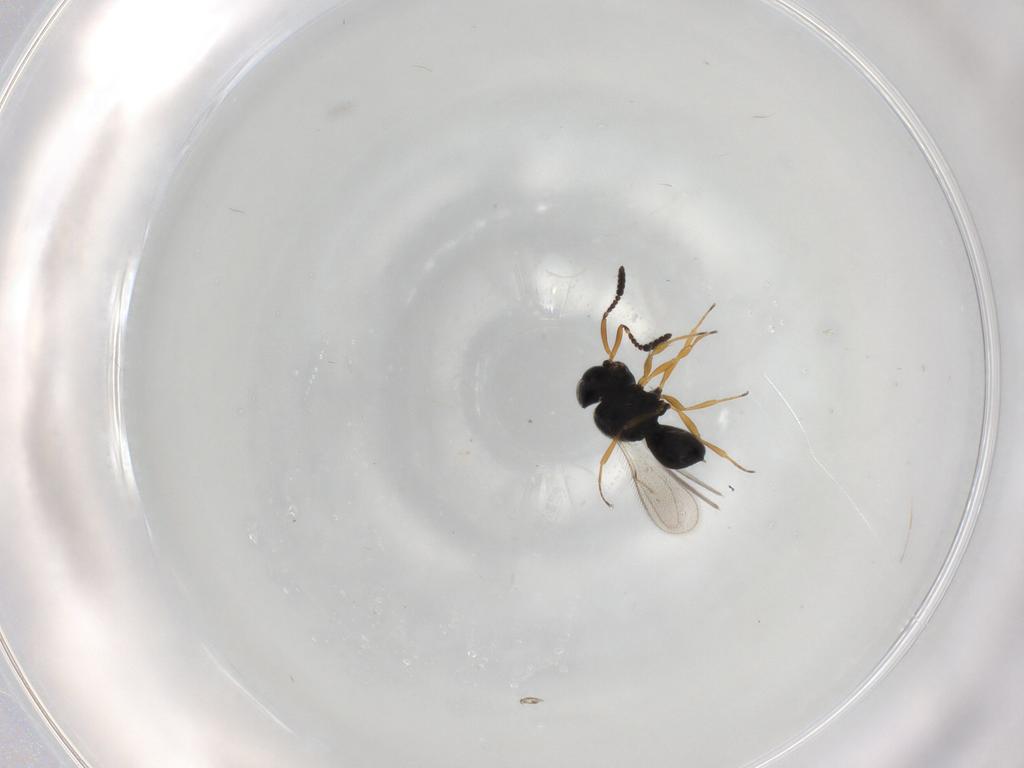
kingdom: Animalia
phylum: Arthropoda
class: Insecta
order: Hymenoptera
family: Scelionidae
